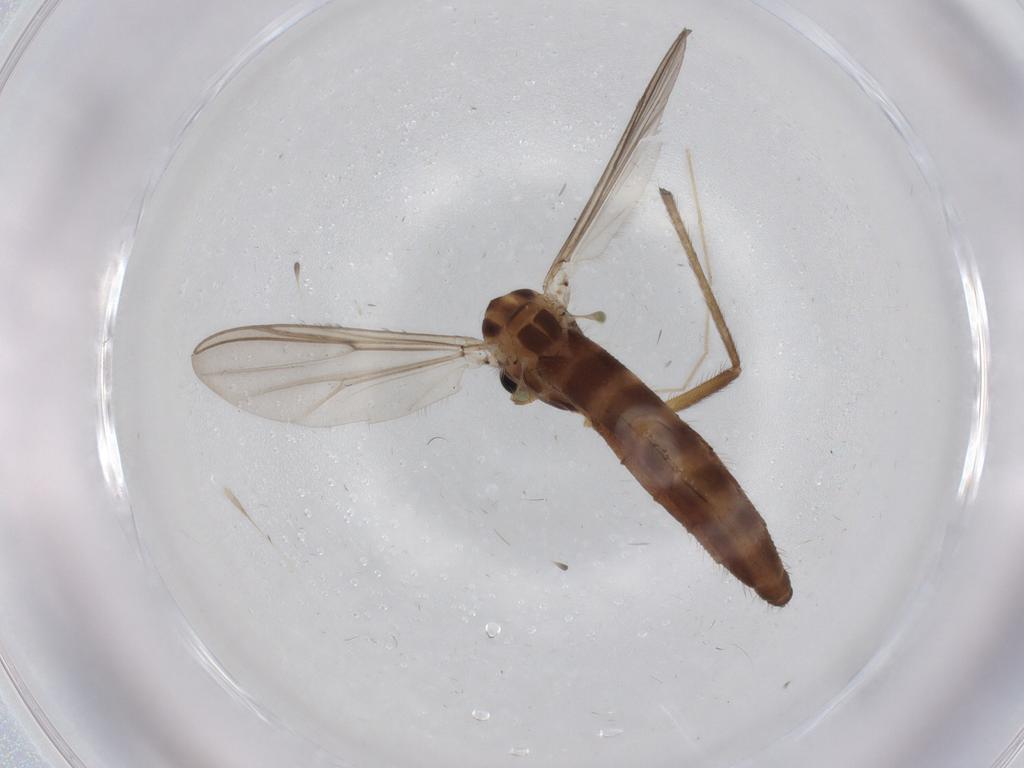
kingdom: Animalia
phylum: Arthropoda
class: Insecta
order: Diptera
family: Chironomidae
